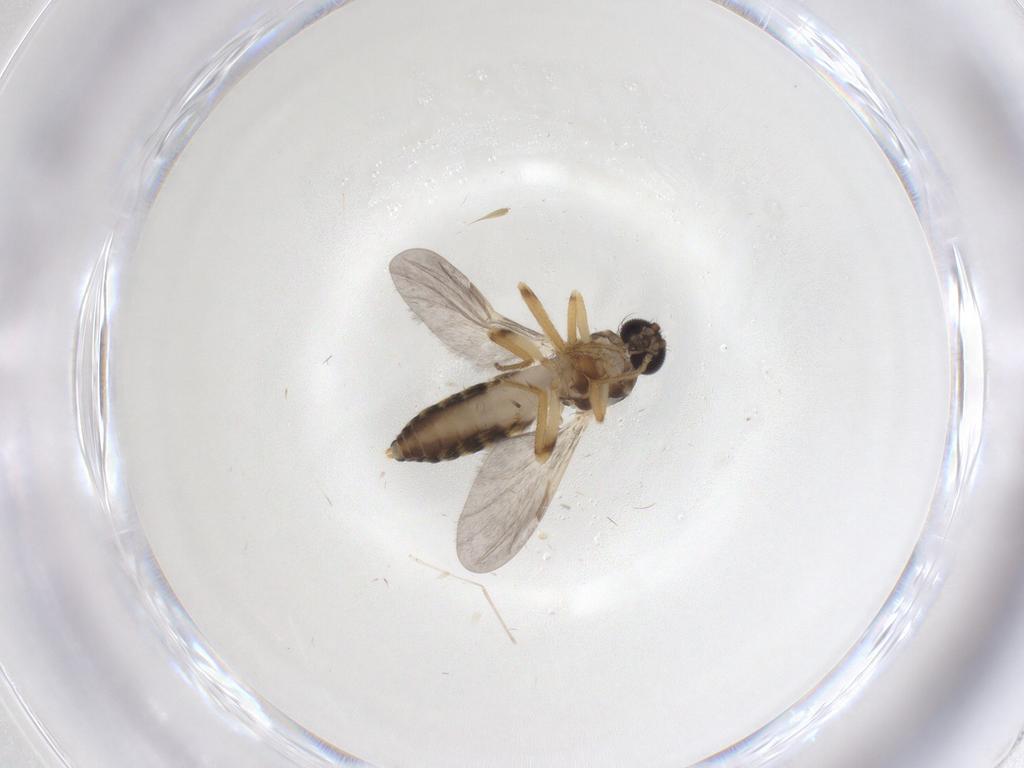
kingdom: Animalia
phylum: Arthropoda
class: Insecta
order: Diptera
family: Ceratopogonidae
